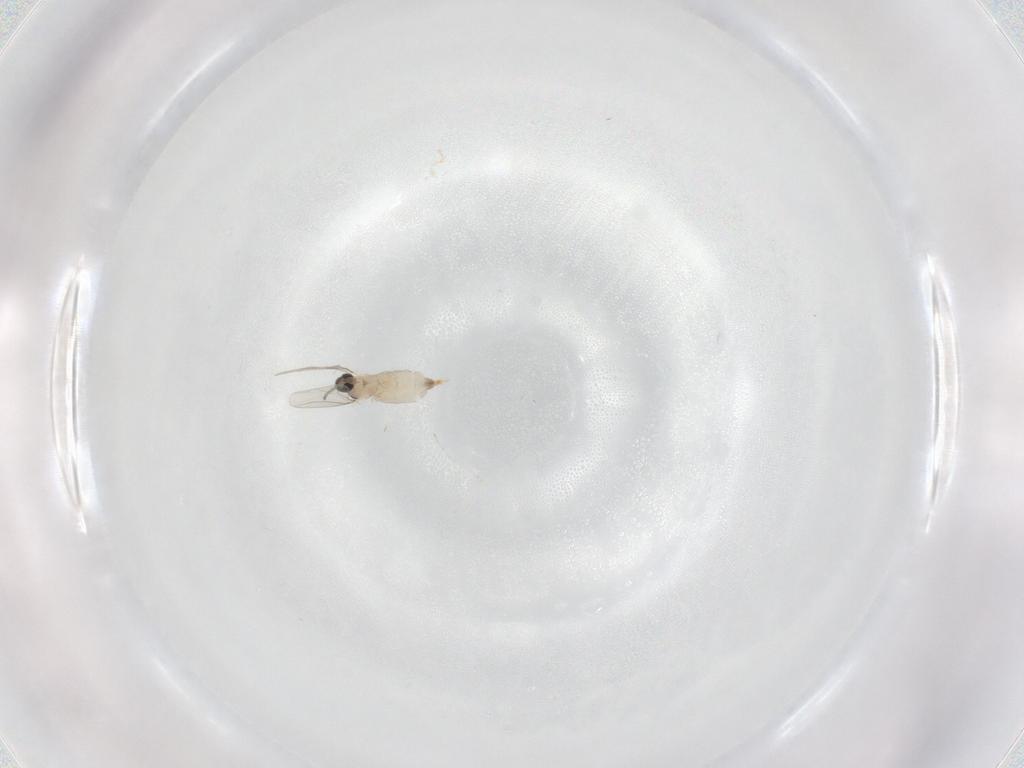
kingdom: Animalia
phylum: Arthropoda
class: Insecta
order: Diptera
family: Cecidomyiidae
